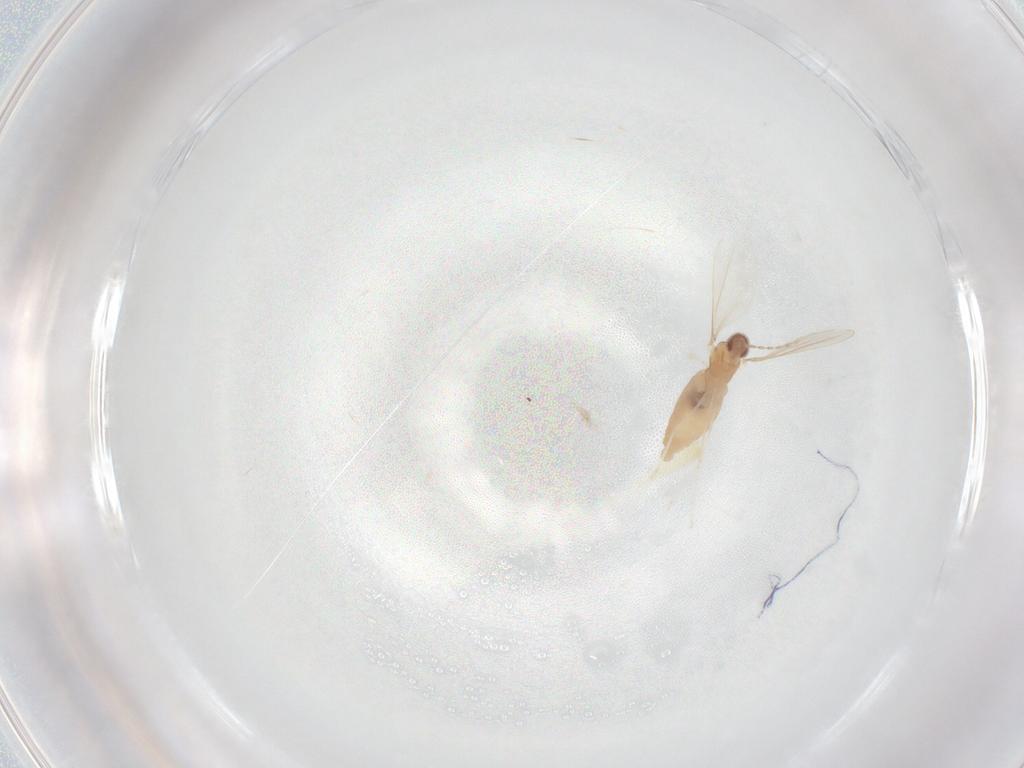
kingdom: Animalia
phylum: Arthropoda
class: Insecta
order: Diptera
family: Cecidomyiidae
